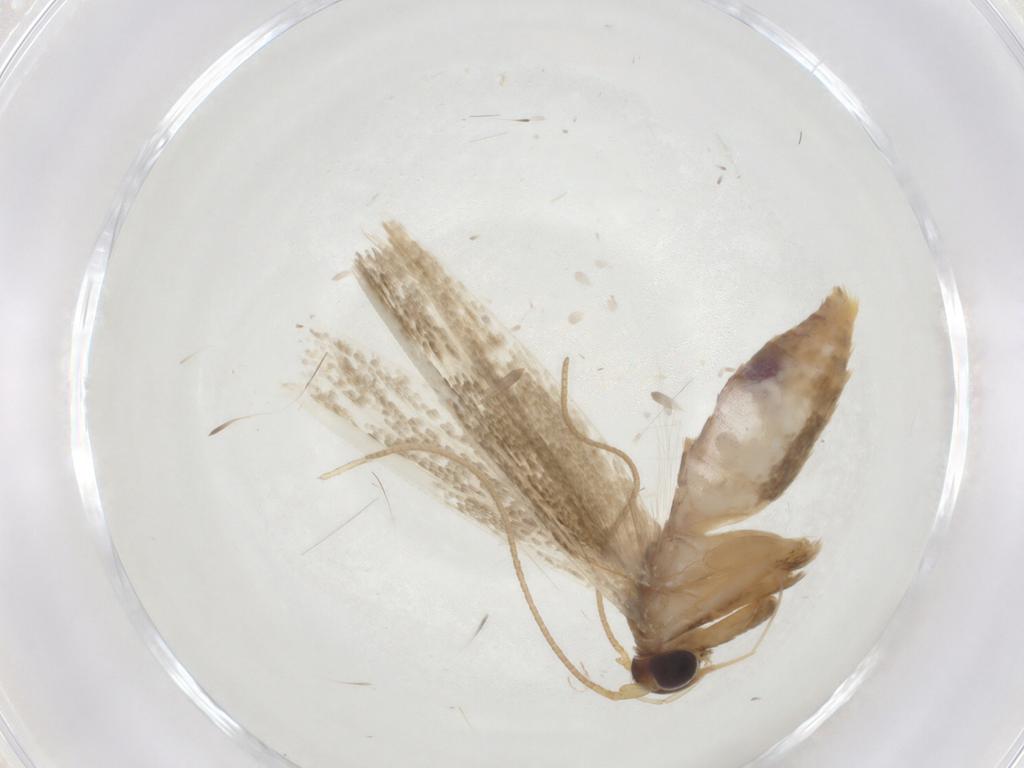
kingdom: Animalia
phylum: Arthropoda
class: Insecta
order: Lepidoptera
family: Blastobasidae
